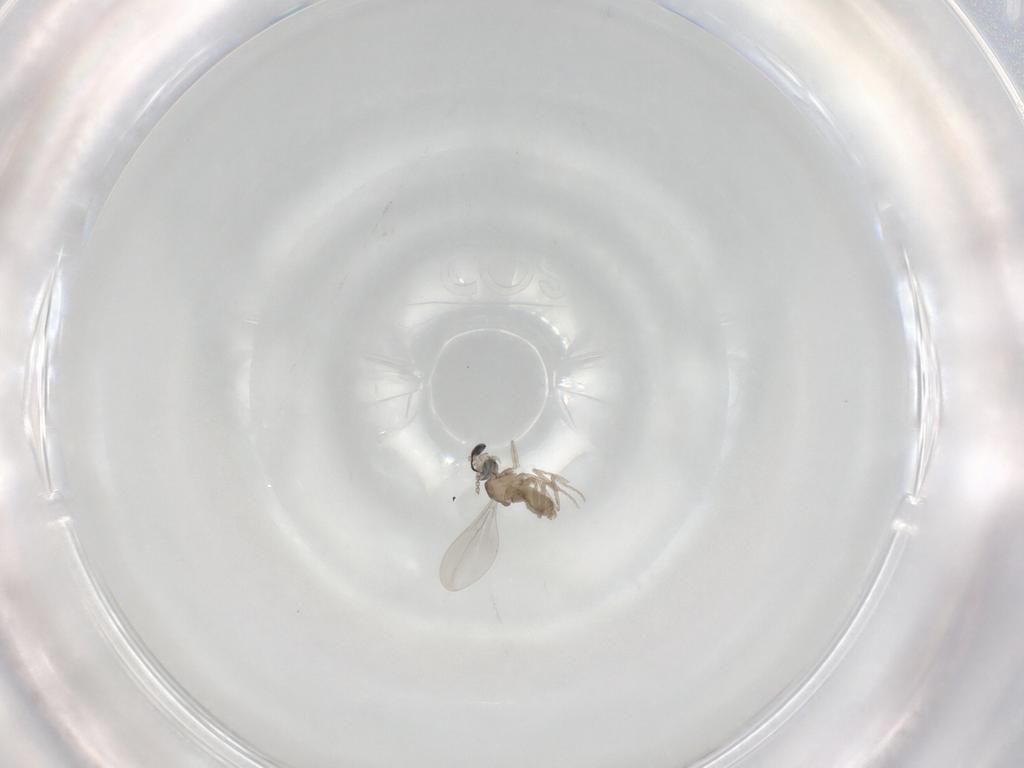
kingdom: Animalia
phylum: Arthropoda
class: Insecta
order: Diptera
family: Cecidomyiidae
